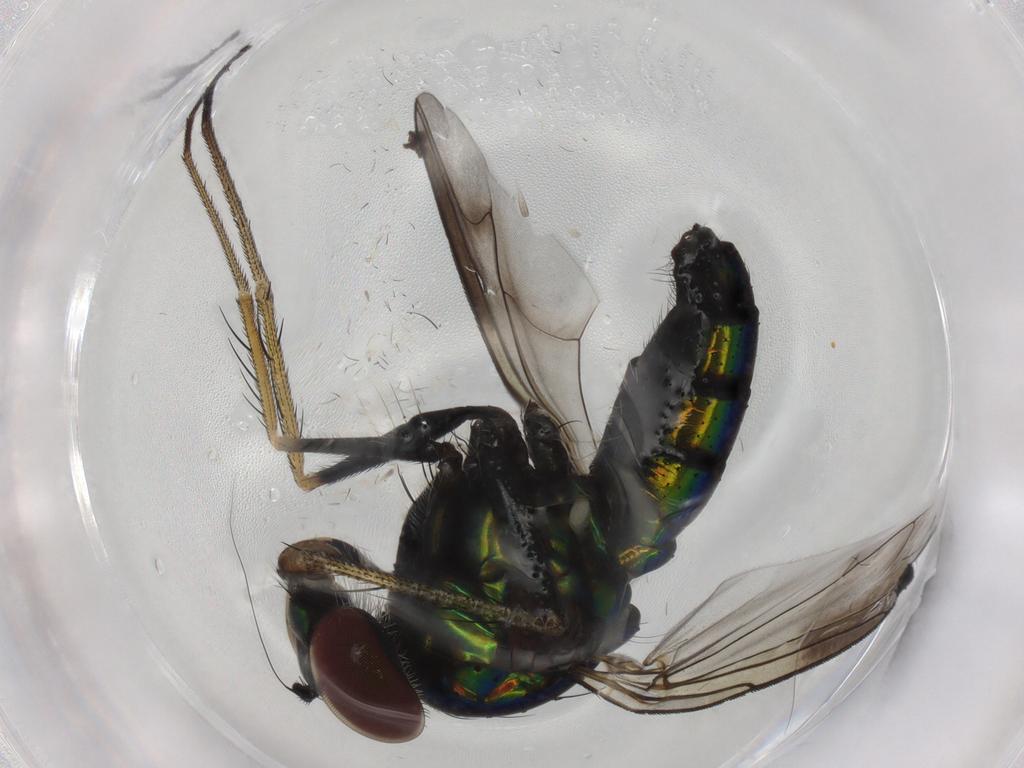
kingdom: Animalia
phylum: Arthropoda
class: Insecta
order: Diptera
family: Dolichopodidae
